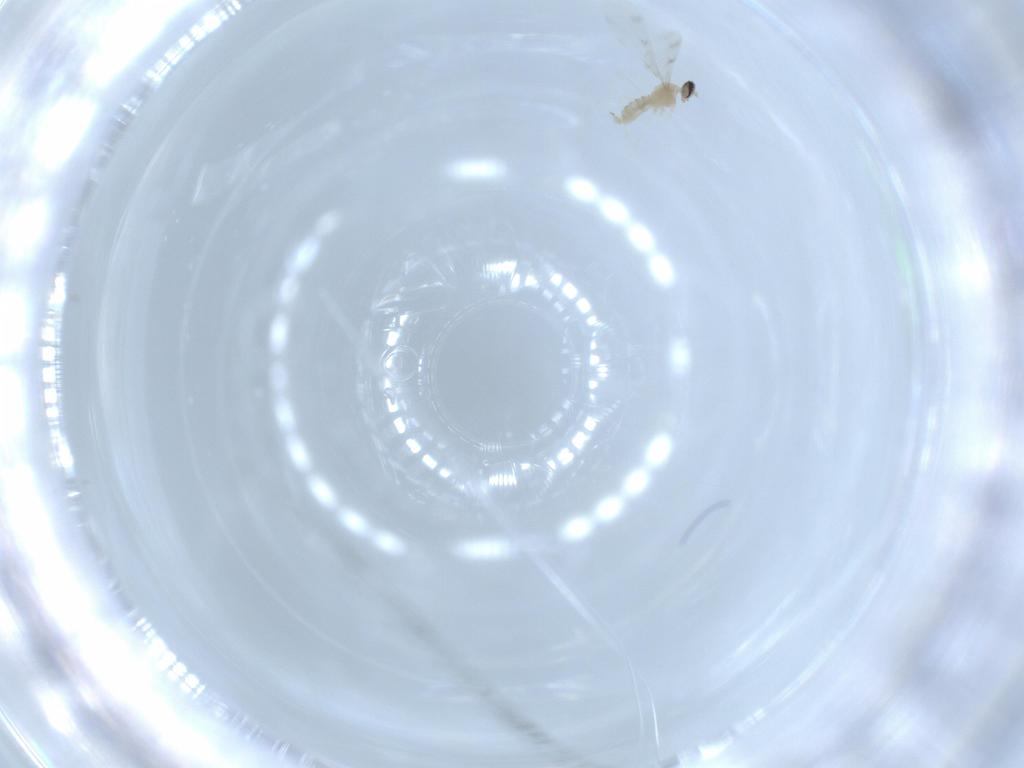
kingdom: Animalia
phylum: Arthropoda
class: Insecta
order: Diptera
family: Cecidomyiidae
